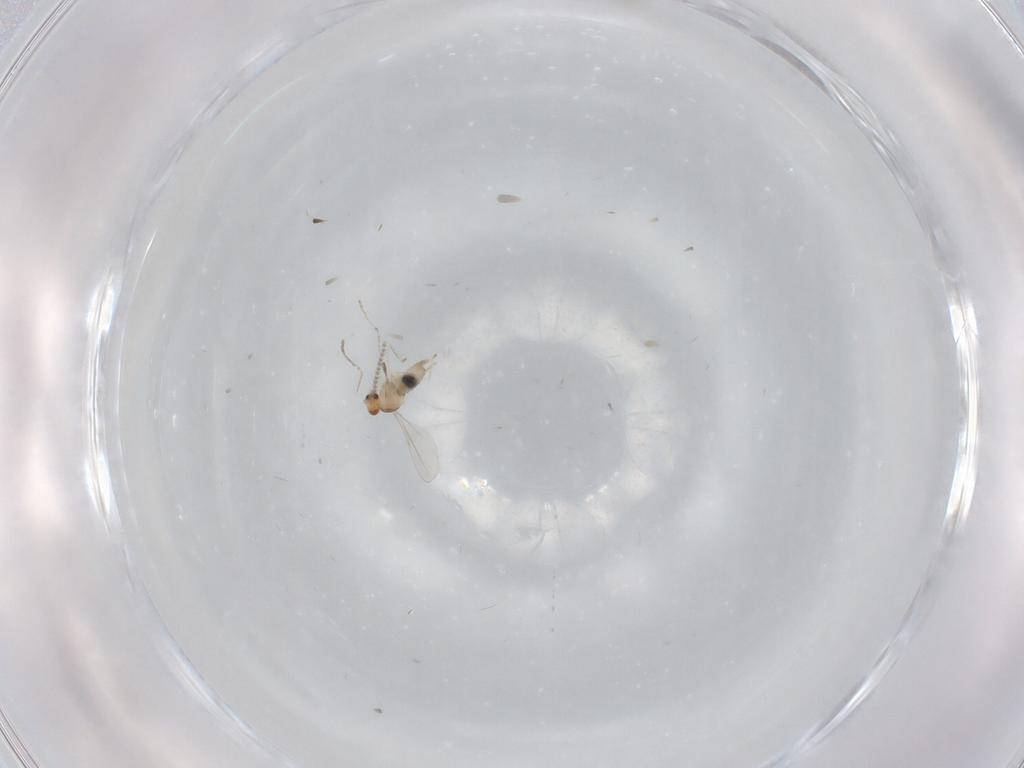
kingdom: Animalia
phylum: Arthropoda
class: Insecta
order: Diptera
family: Cecidomyiidae
